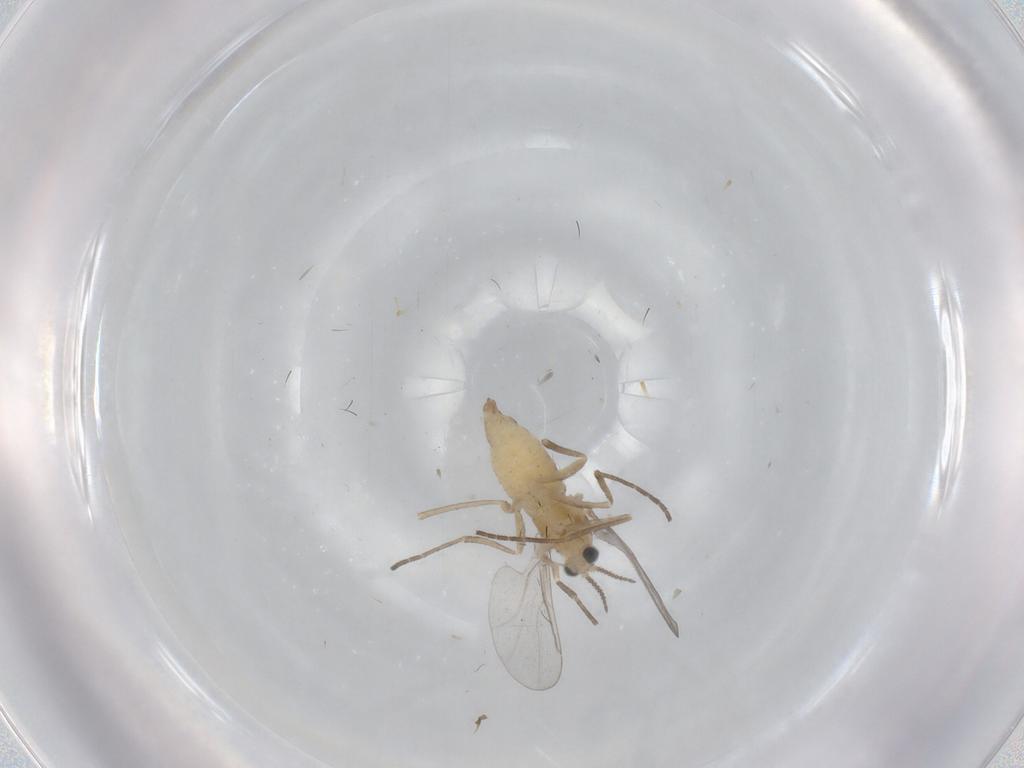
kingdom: Animalia
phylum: Arthropoda
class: Insecta
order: Diptera
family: Cecidomyiidae
